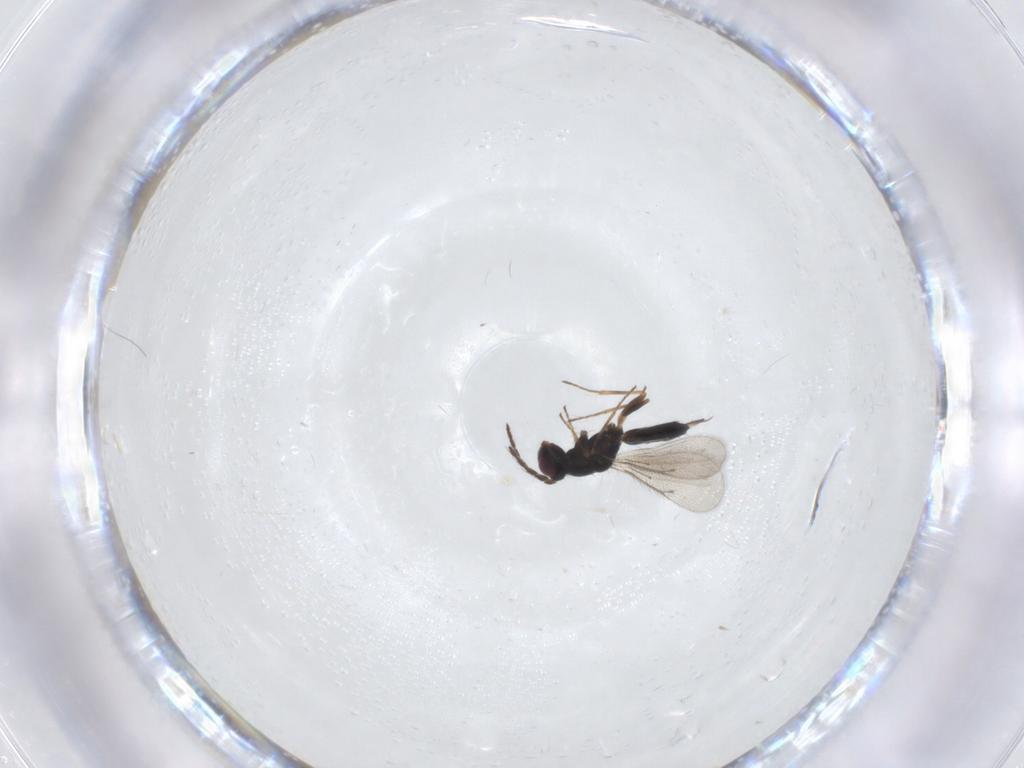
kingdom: Animalia
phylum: Arthropoda
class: Insecta
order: Hymenoptera
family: Eulophidae
